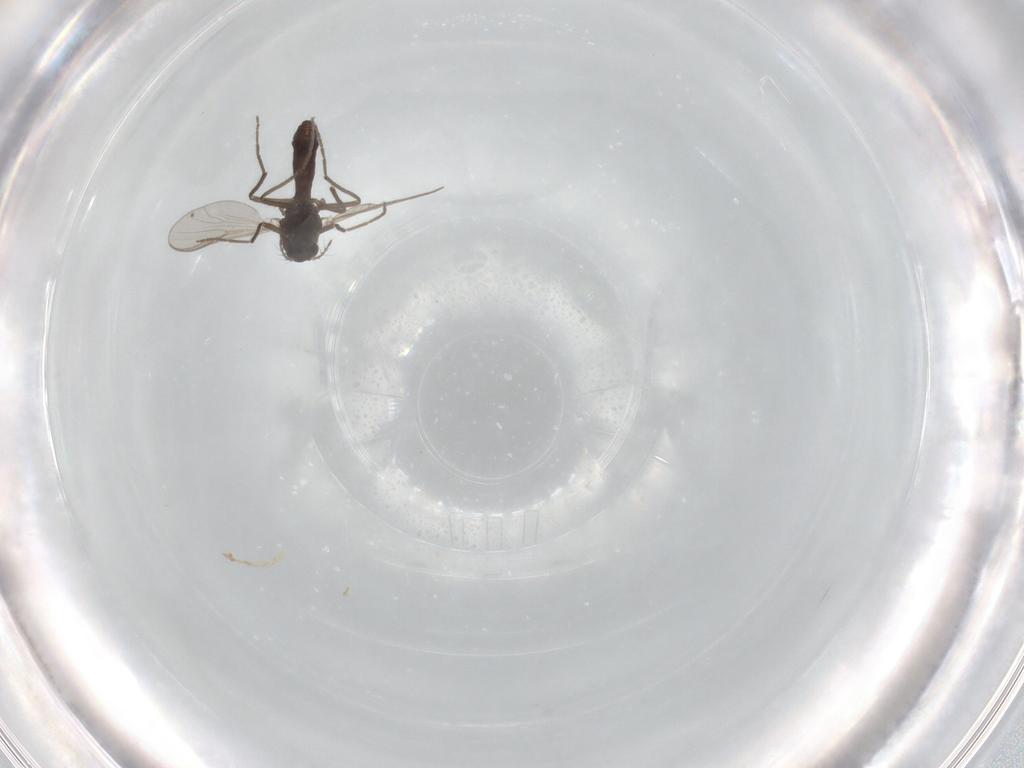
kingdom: Animalia
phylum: Arthropoda
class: Insecta
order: Diptera
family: Chironomidae
